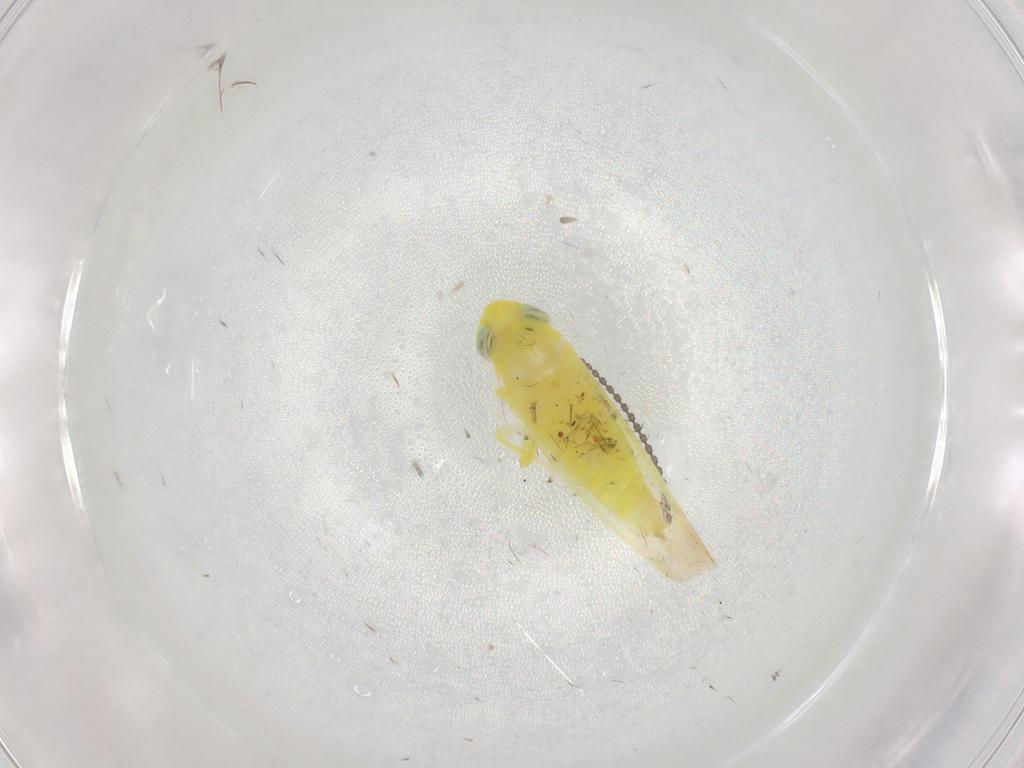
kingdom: Animalia
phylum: Arthropoda
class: Insecta
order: Hemiptera
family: Cicadellidae
